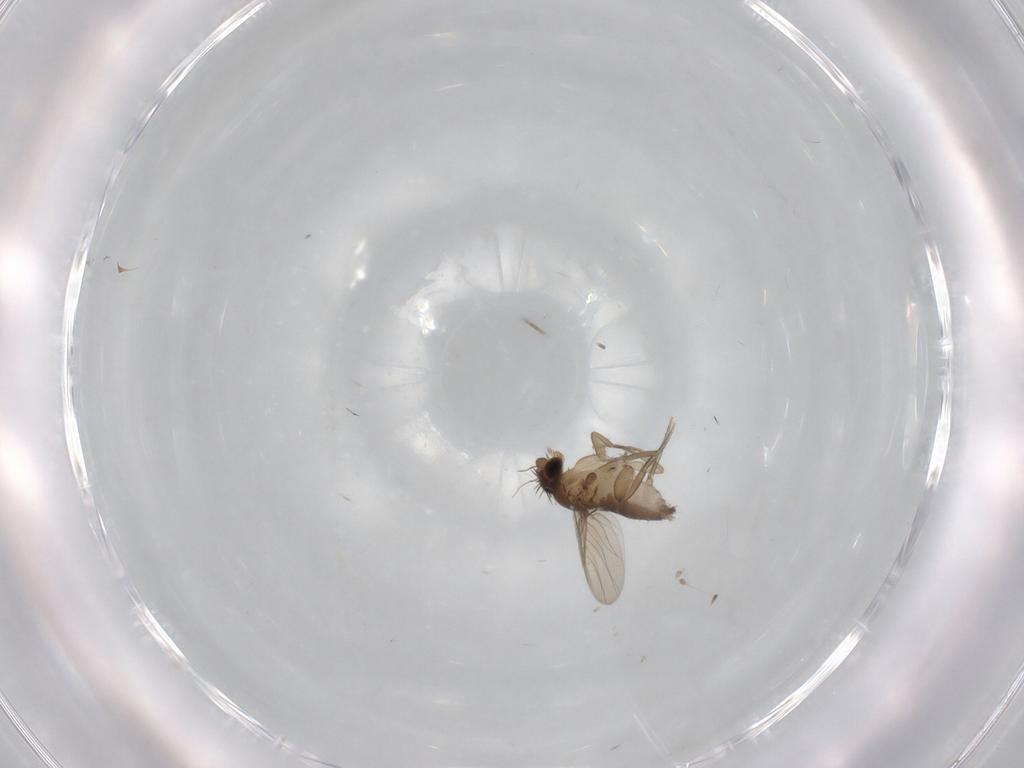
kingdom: Animalia
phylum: Arthropoda
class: Insecta
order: Diptera
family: Phoridae
